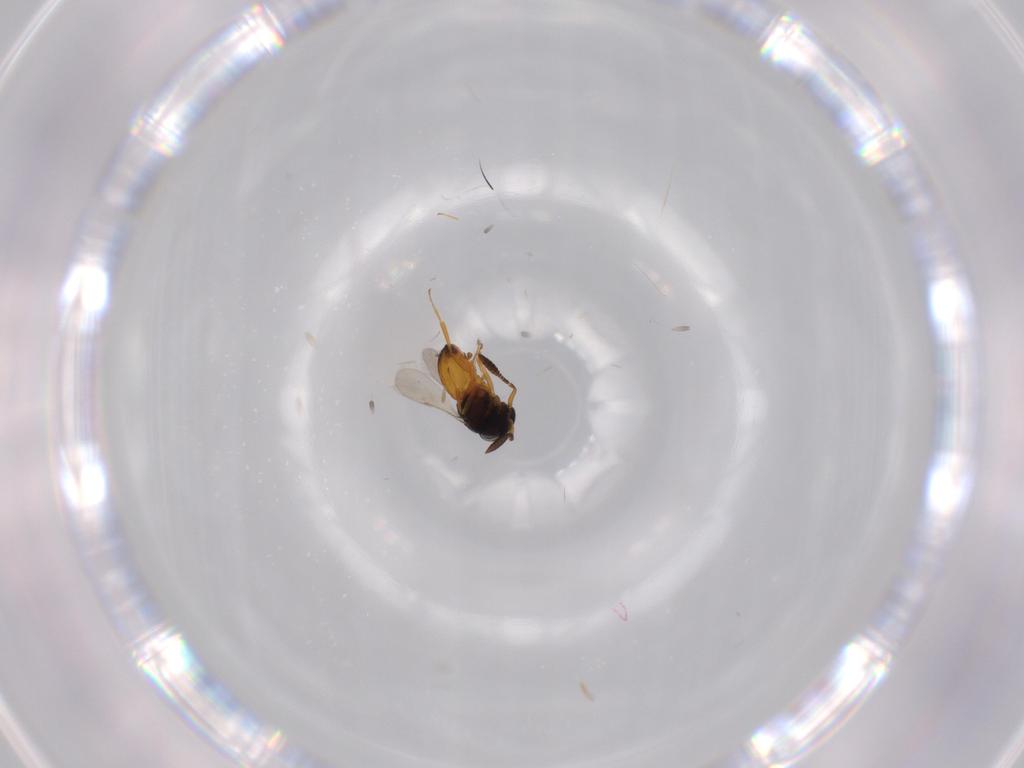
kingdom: Animalia
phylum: Arthropoda
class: Insecta
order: Hymenoptera
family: Scelionidae
